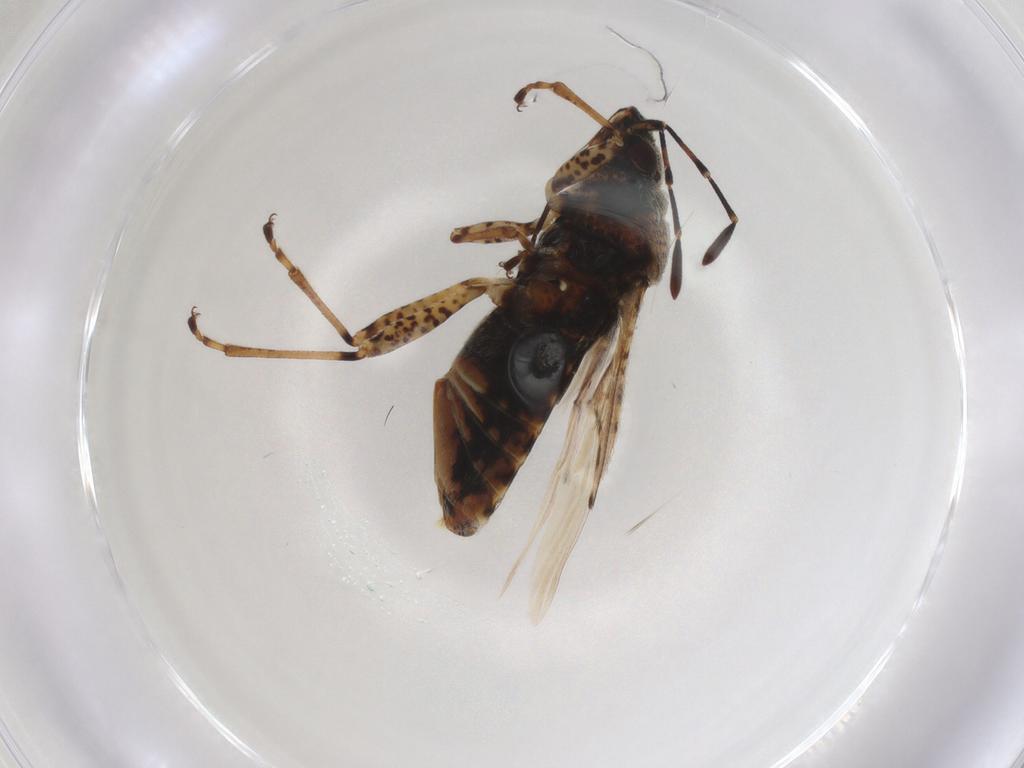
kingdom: Animalia
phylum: Arthropoda
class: Insecta
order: Hemiptera
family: Lygaeidae
